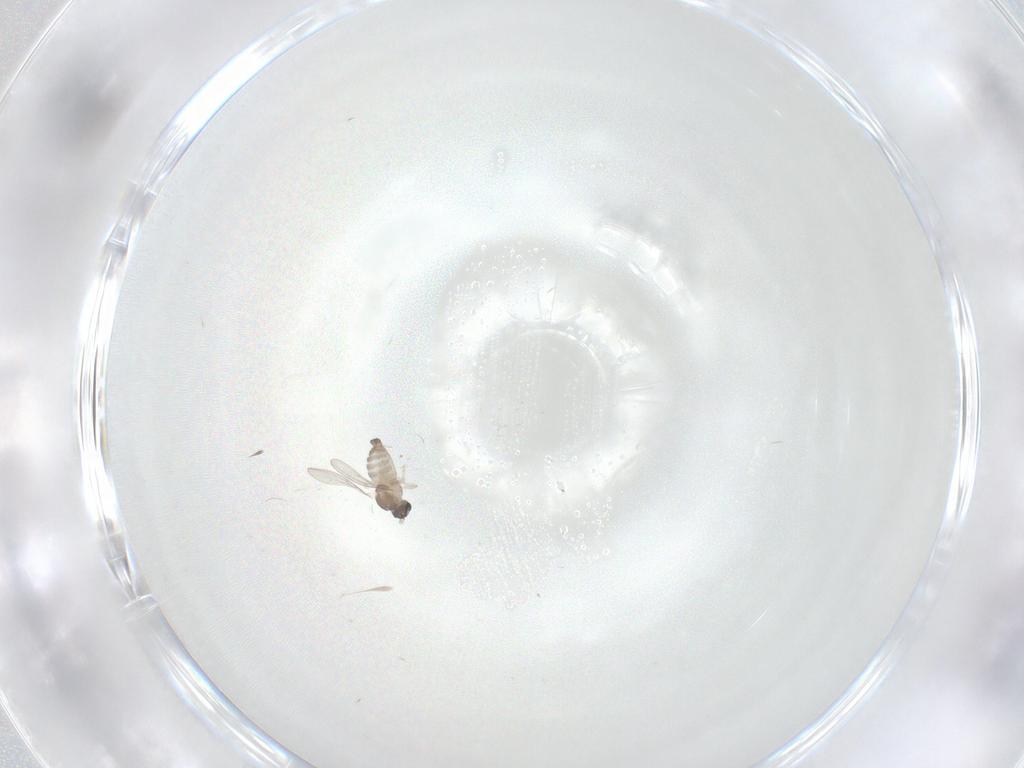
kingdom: Animalia
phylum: Arthropoda
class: Insecta
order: Diptera
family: Cecidomyiidae
